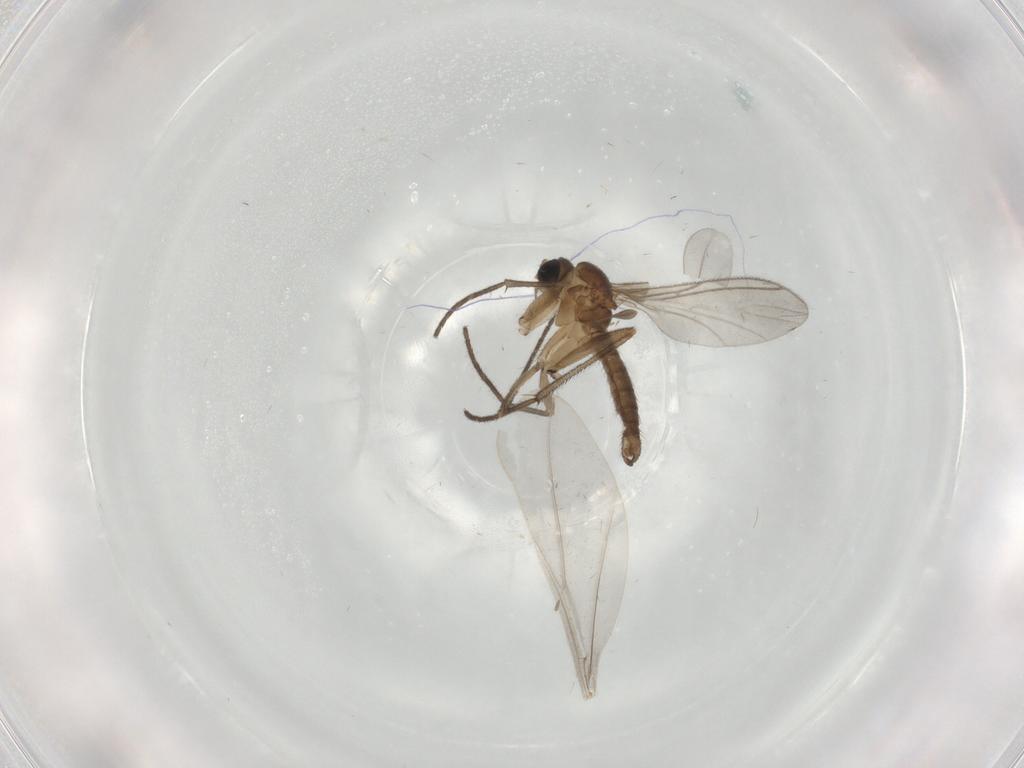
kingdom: Animalia
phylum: Arthropoda
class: Insecta
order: Diptera
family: Cecidomyiidae
